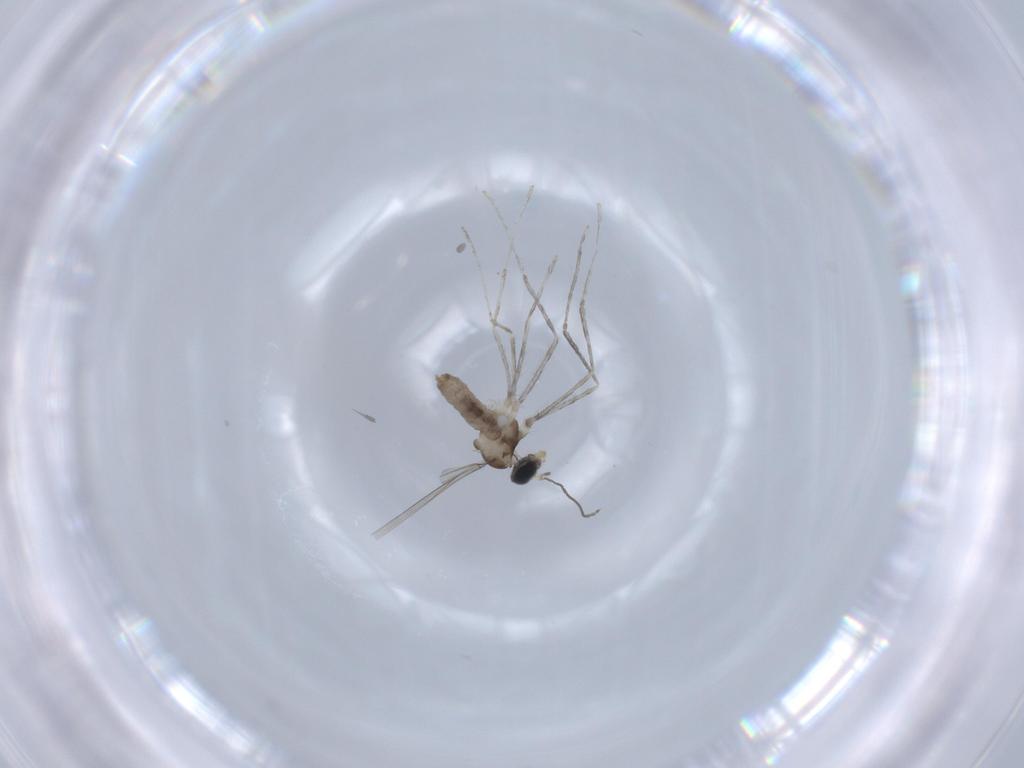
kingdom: Animalia
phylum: Arthropoda
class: Insecta
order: Diptera
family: Cecidomyiidae
